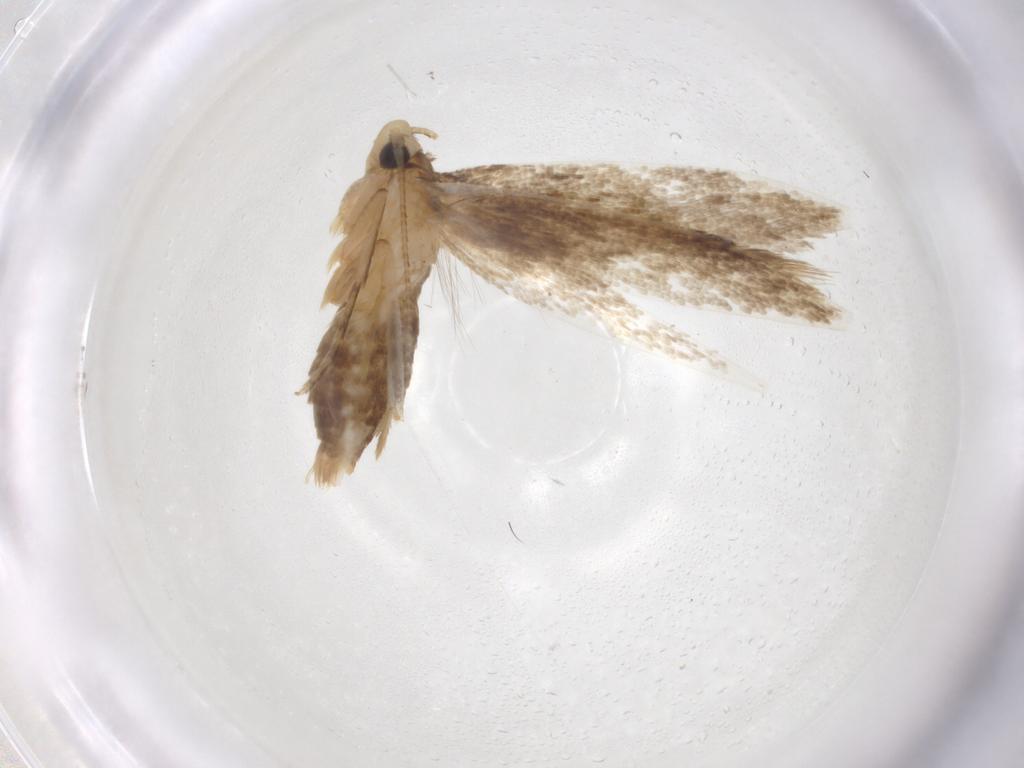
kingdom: Animalia
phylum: Arthropoda
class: Insecta
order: Lepidoptera
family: Tineidae
